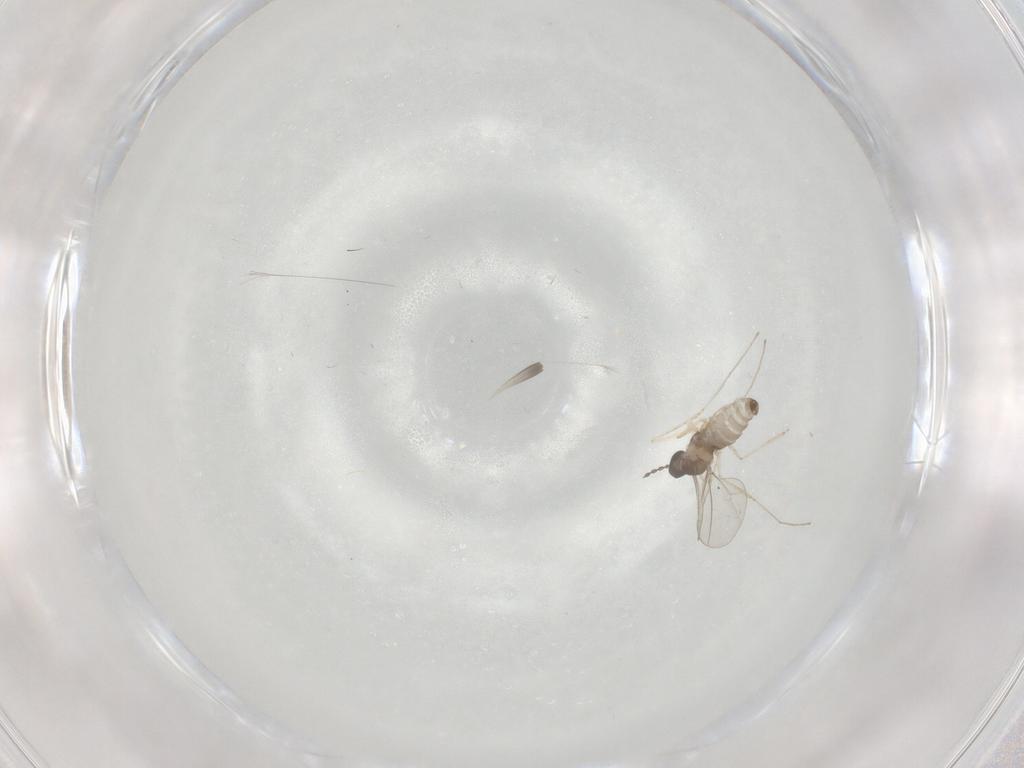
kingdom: Animalia
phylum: Arthropoda
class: Insecta
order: Diptera
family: Cecidomyiidae
